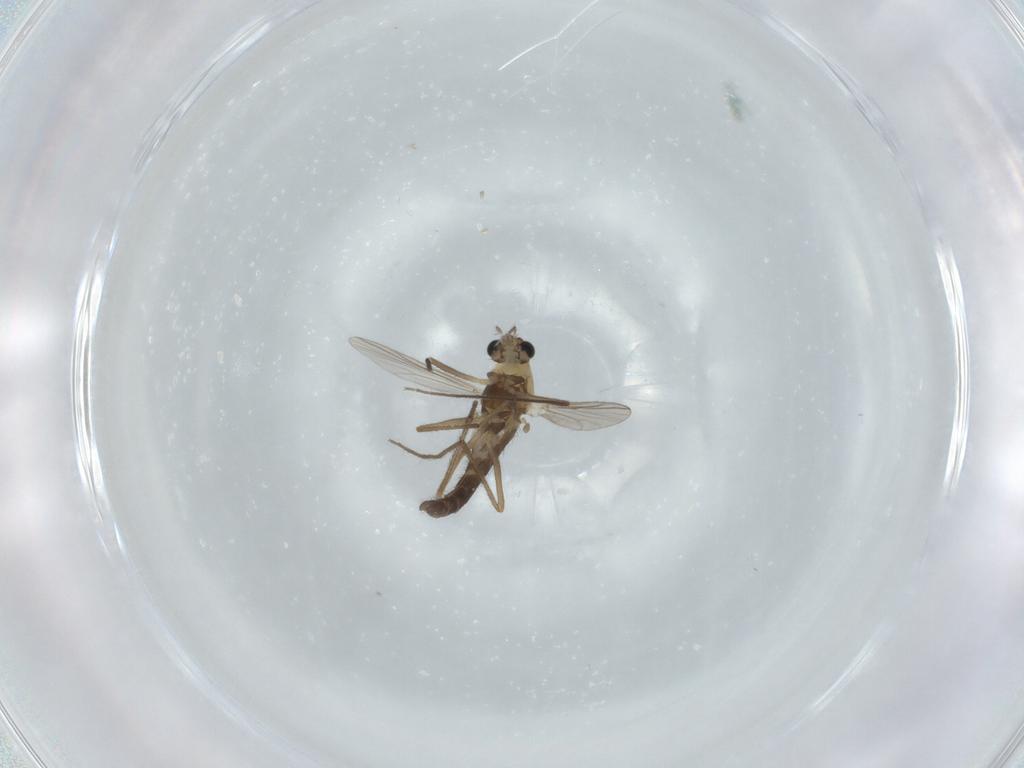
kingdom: Animalia
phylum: Arthropoda
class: Insecta
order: Diptera
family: Chironomidae
